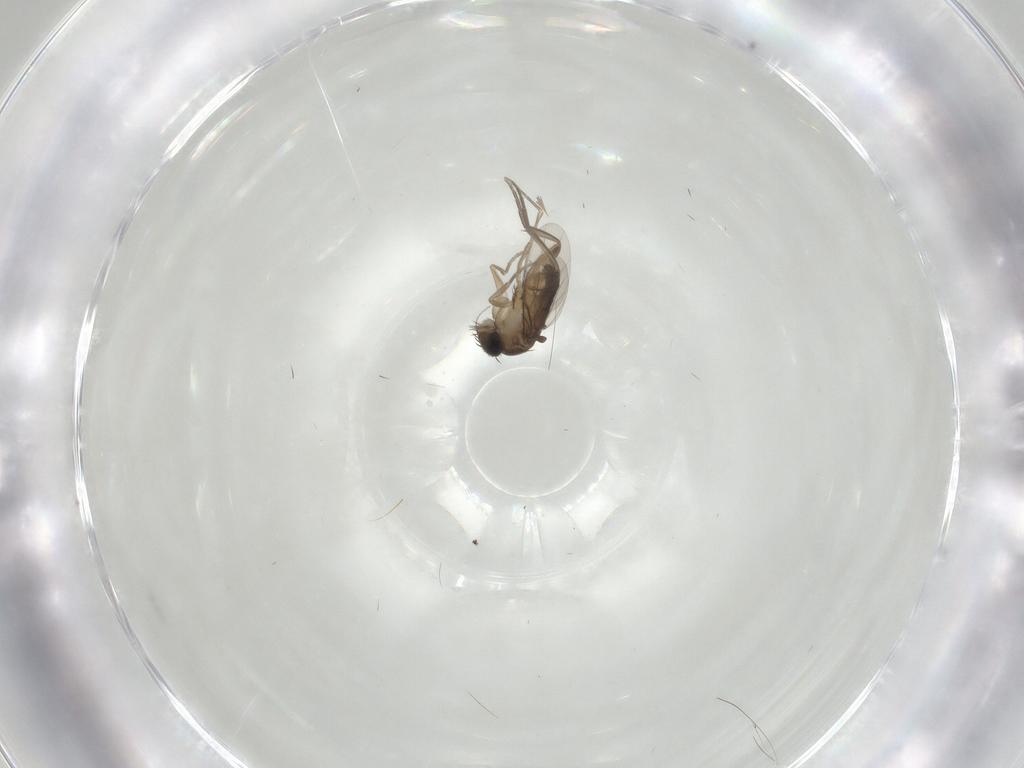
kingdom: Animalia
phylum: Arthropoda
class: Insecta
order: Diptera
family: Phoridae
